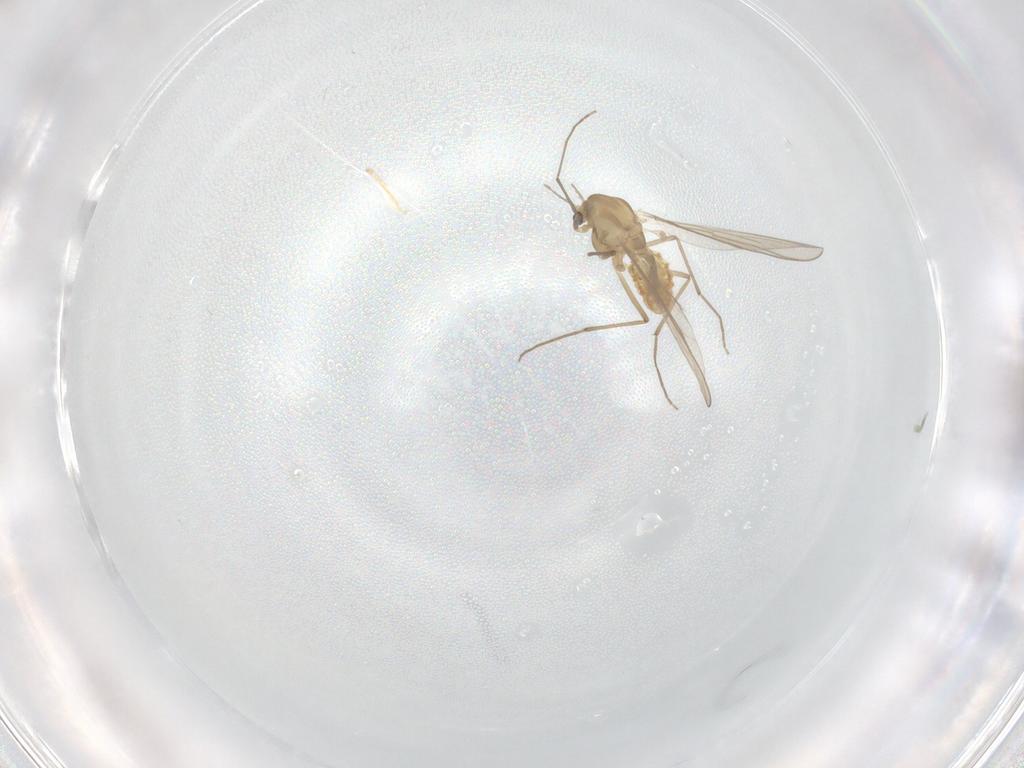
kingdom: Animalia
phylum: Arthropoda
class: Insecta
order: Diptera
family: Chironomidae
